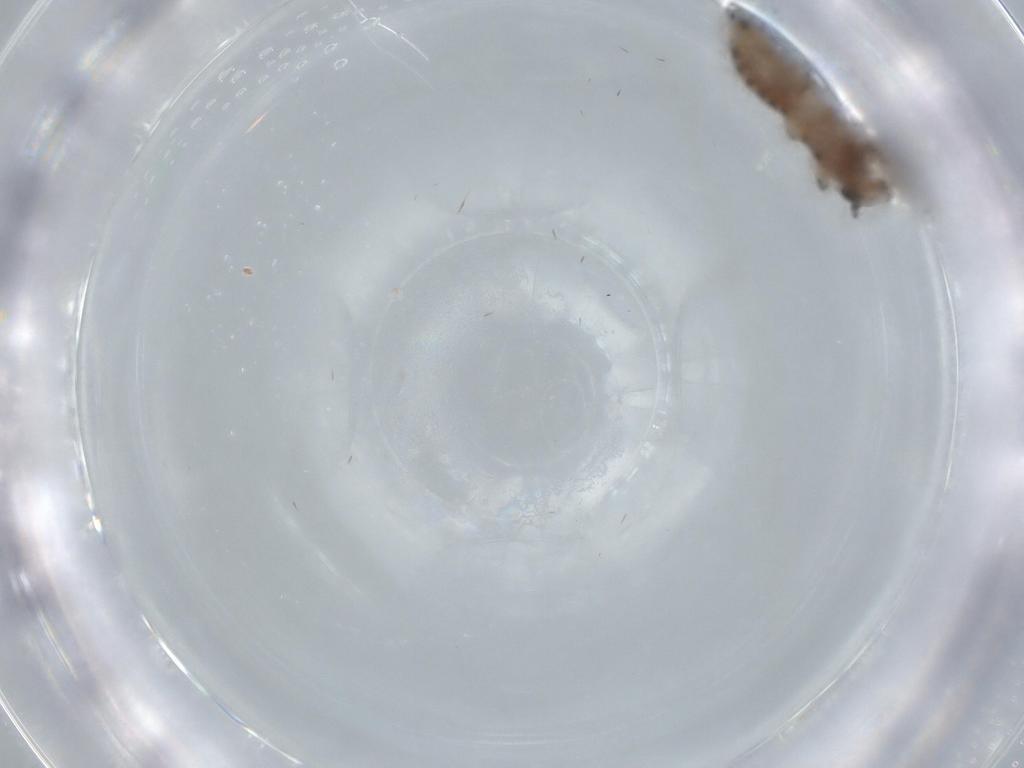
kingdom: Animalia
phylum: Arthropoda
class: Insecta
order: Psocodea
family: Lepidopsocidae
